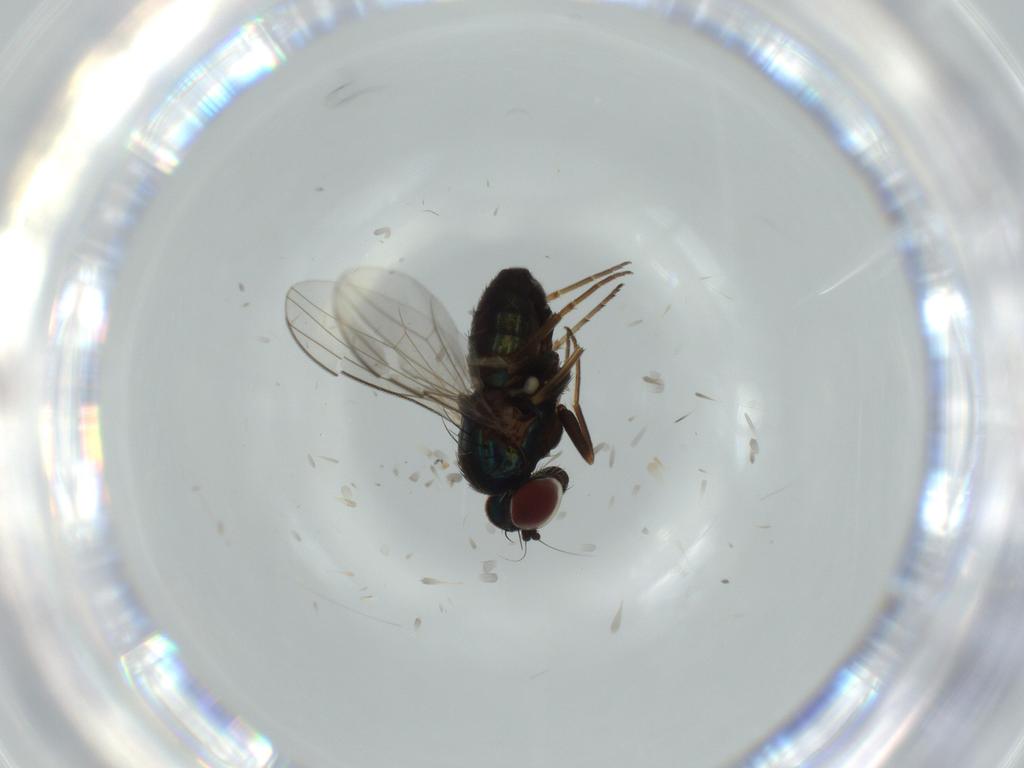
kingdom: Animalia
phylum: Arthropoda
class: Insecta
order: Diptera
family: Dolichopodidae
